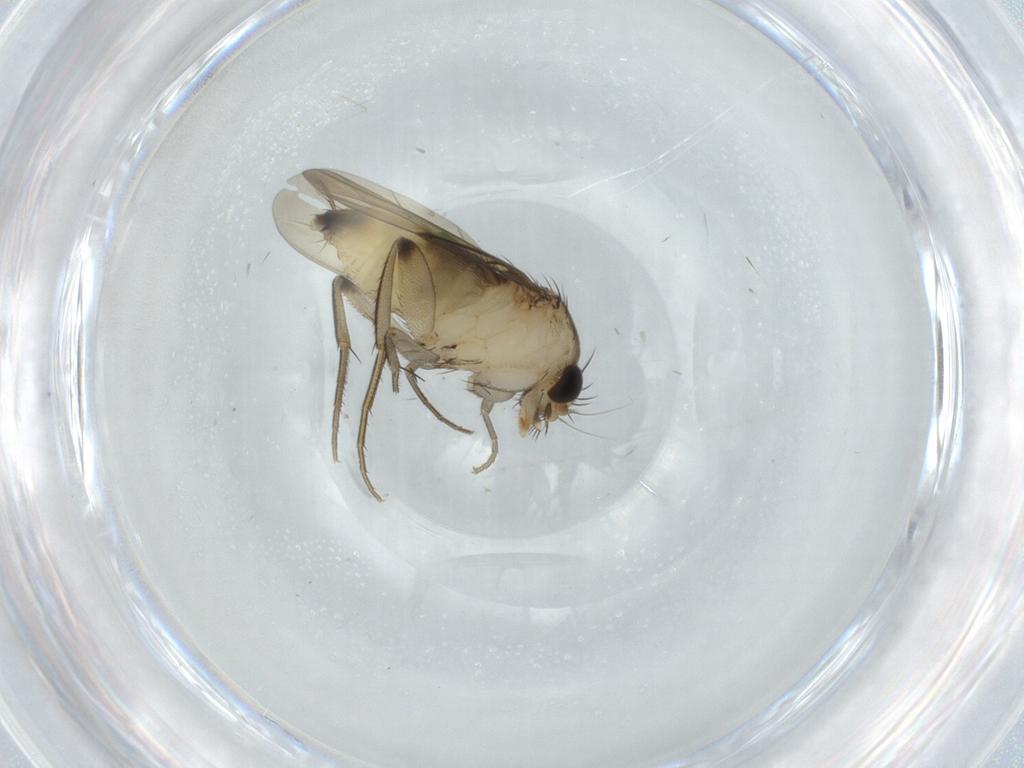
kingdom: Animalia
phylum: Arthropoda
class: Insecta
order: Diptera
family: Phoridae
